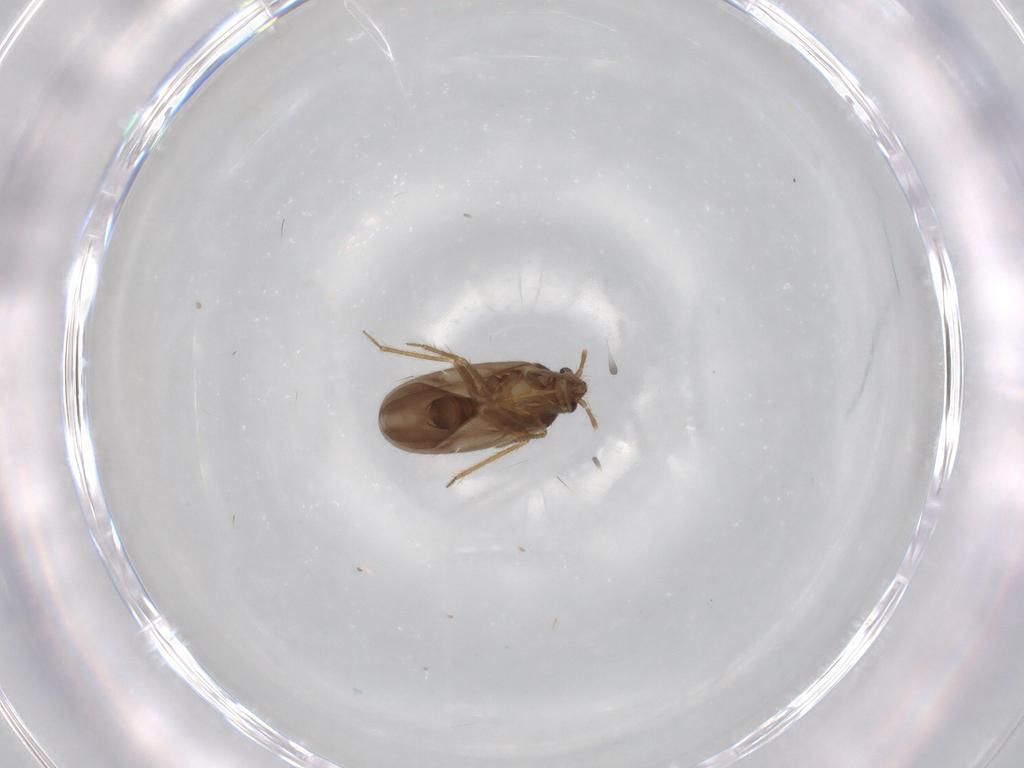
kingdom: Animalia
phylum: Arthropoda
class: Insecta
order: Hemiptera
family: Ceratocombidae
